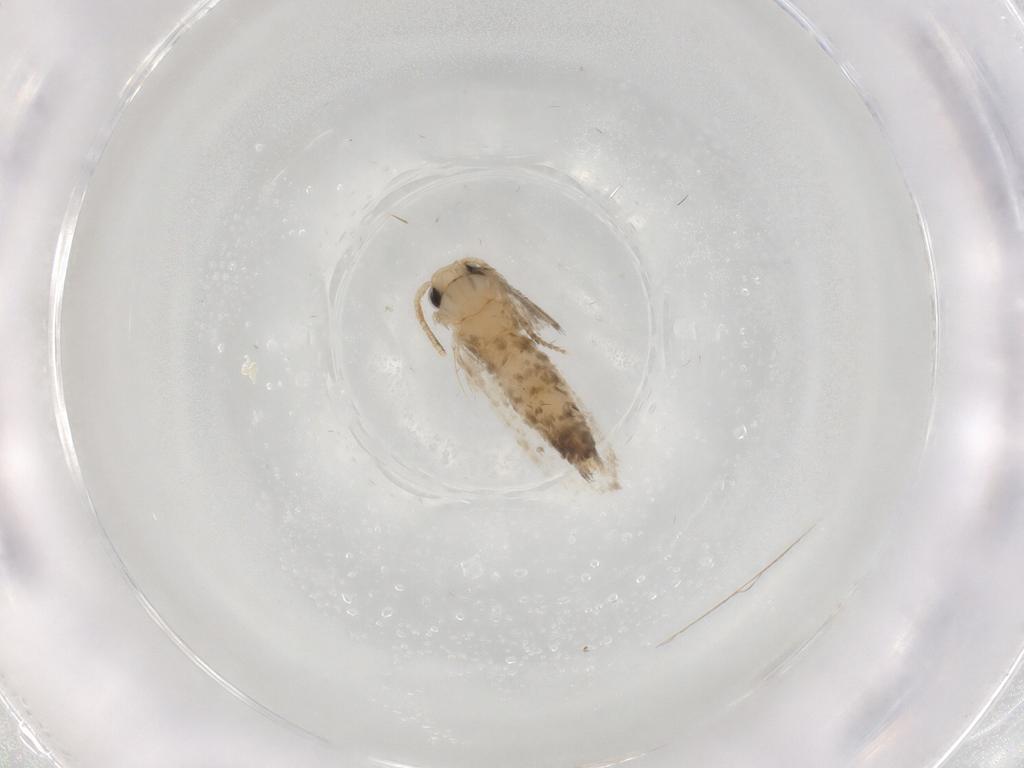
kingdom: Animalia
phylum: Arthropoda
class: Insecta
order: Lepidoptera
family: Psychidae
